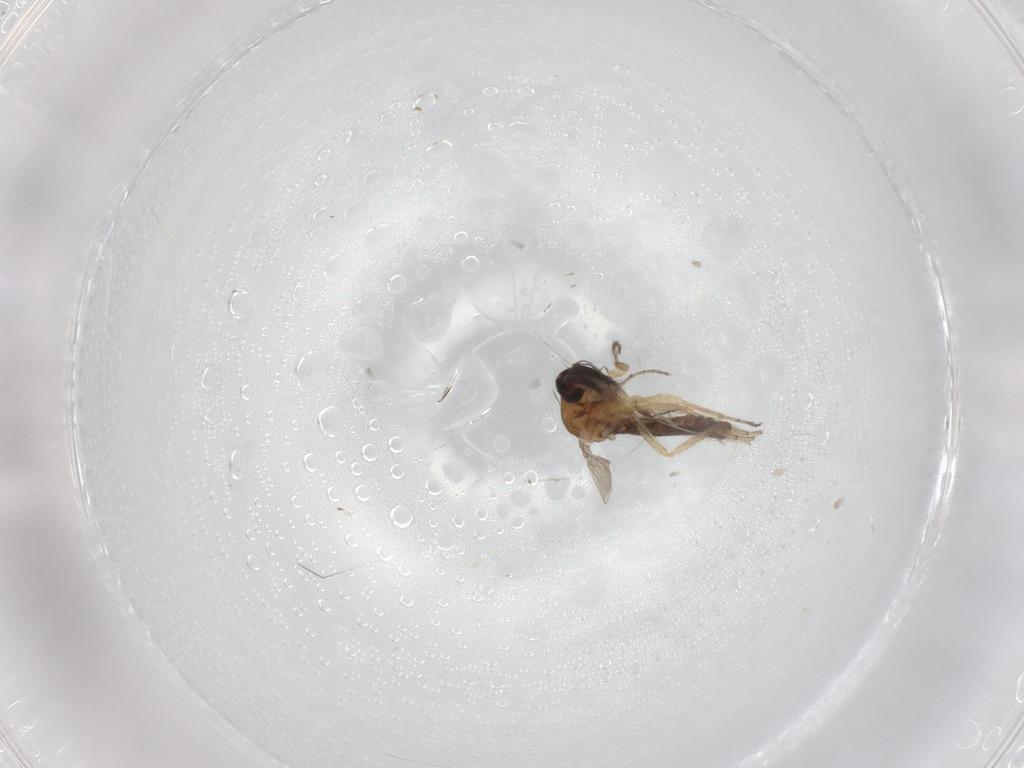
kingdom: Animalia
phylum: Arthropoda
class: Insecta
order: Diptera
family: Ceratopogonidae
